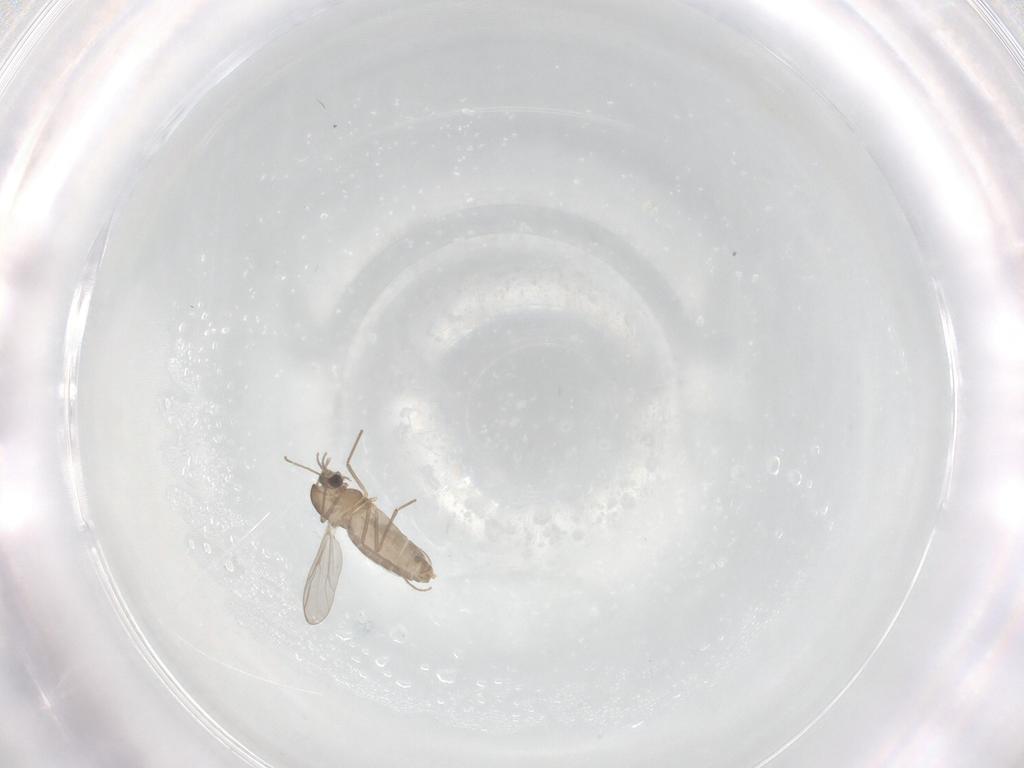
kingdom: Animalia
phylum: Arthropoda
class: Insecta
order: Diptera
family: Chironomidae
